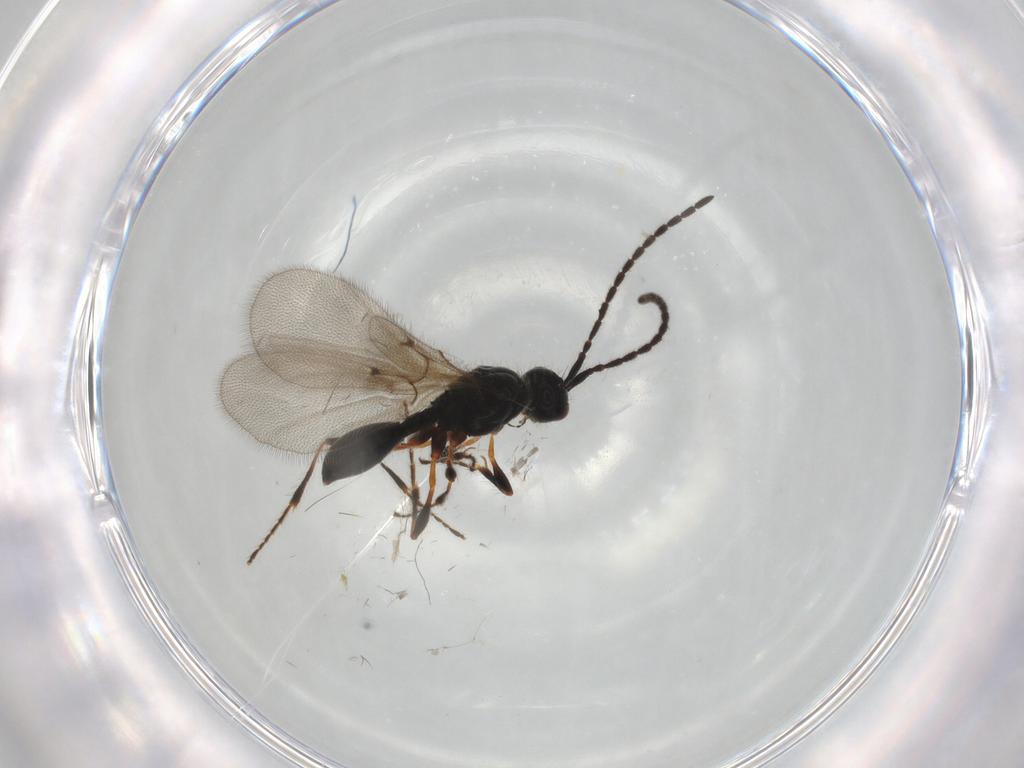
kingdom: Animalia
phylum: Arthropoda
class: Insecta
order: Hymenoptera
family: Diapriidae
